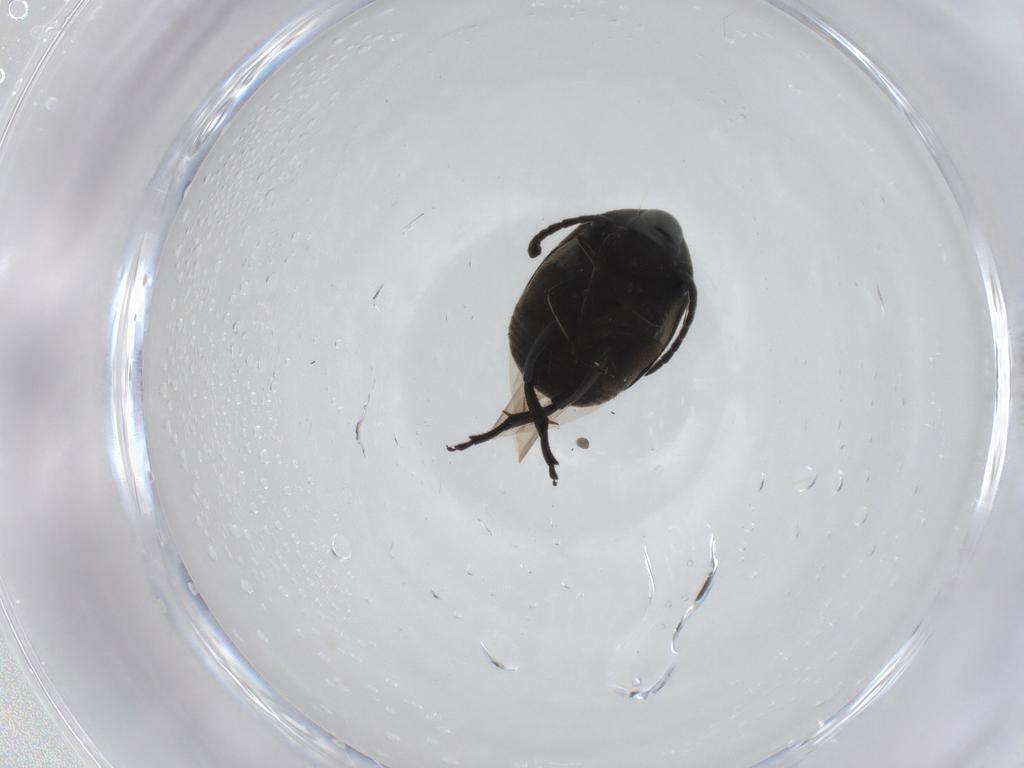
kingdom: Animalia
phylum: Arthropoda
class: Insecta
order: Coleoptera
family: Chrysomelidae
